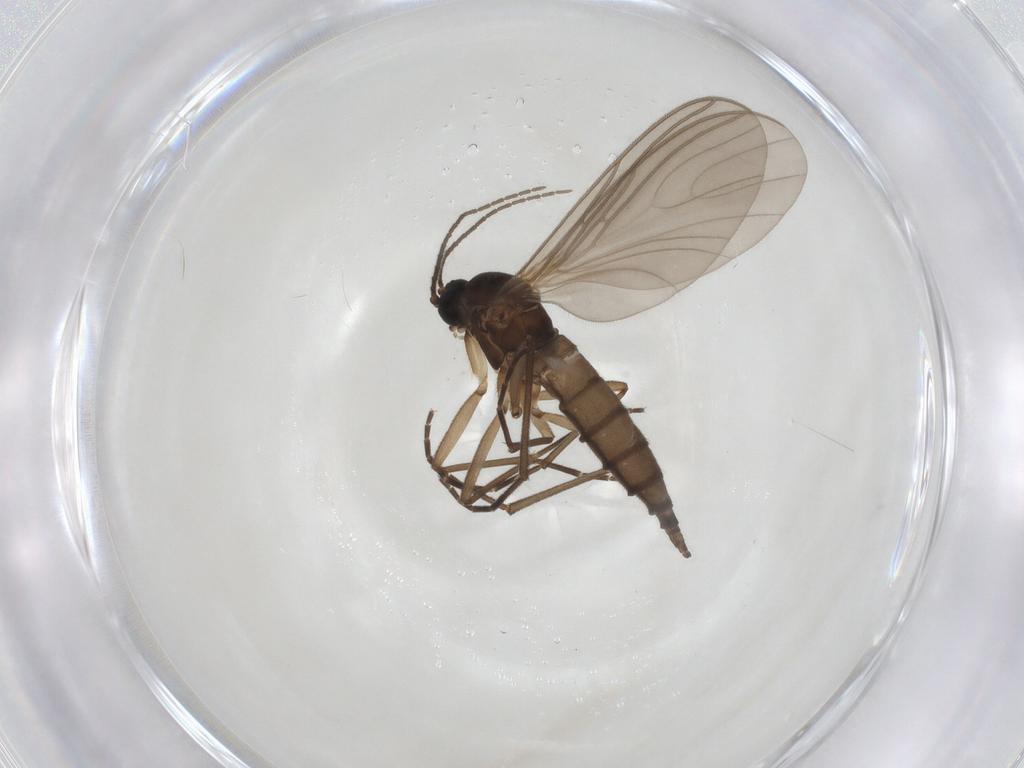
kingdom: Animalia
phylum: Arthropoda
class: Insecta
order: Diptera
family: Sciaridae
